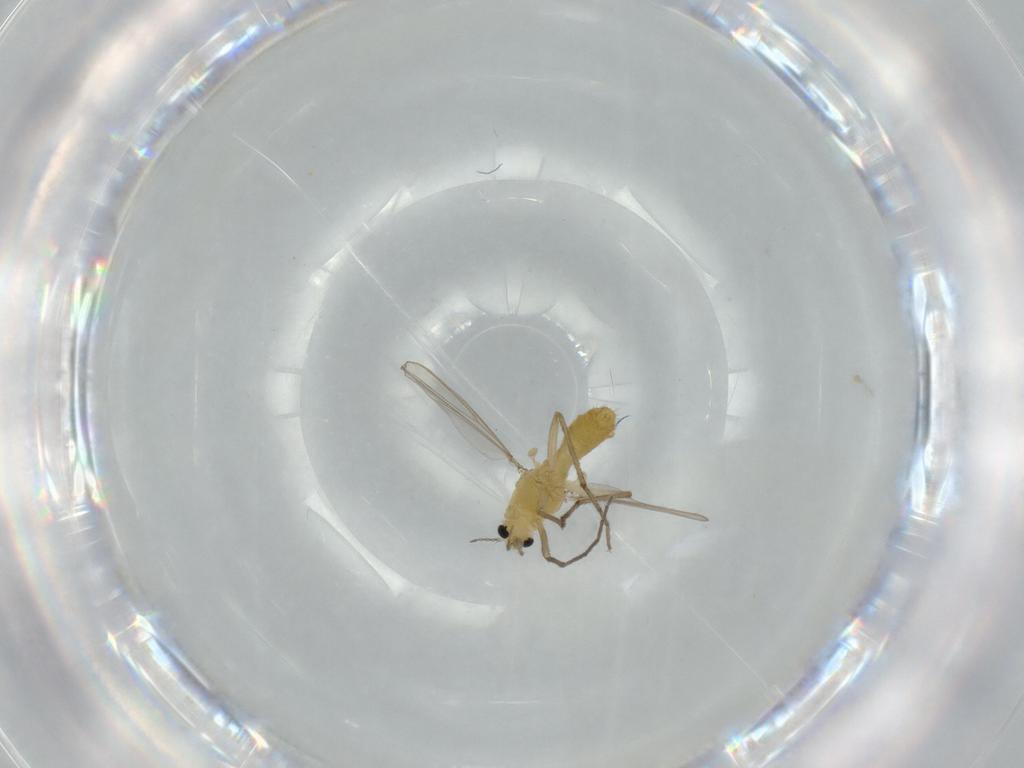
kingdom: Animalia
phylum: Arthropoda
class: Insecta
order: Diptera
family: Chironomidae
